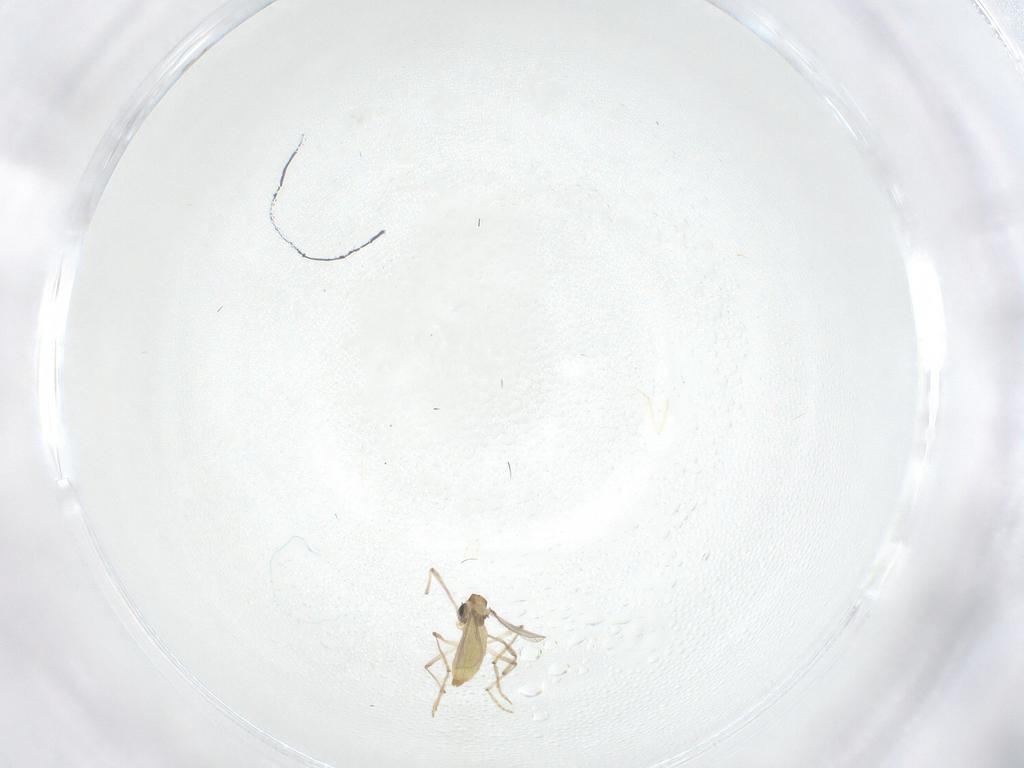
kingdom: Animalia
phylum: Arthropoda
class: Insecta
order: Diptera
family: Chironomidae
